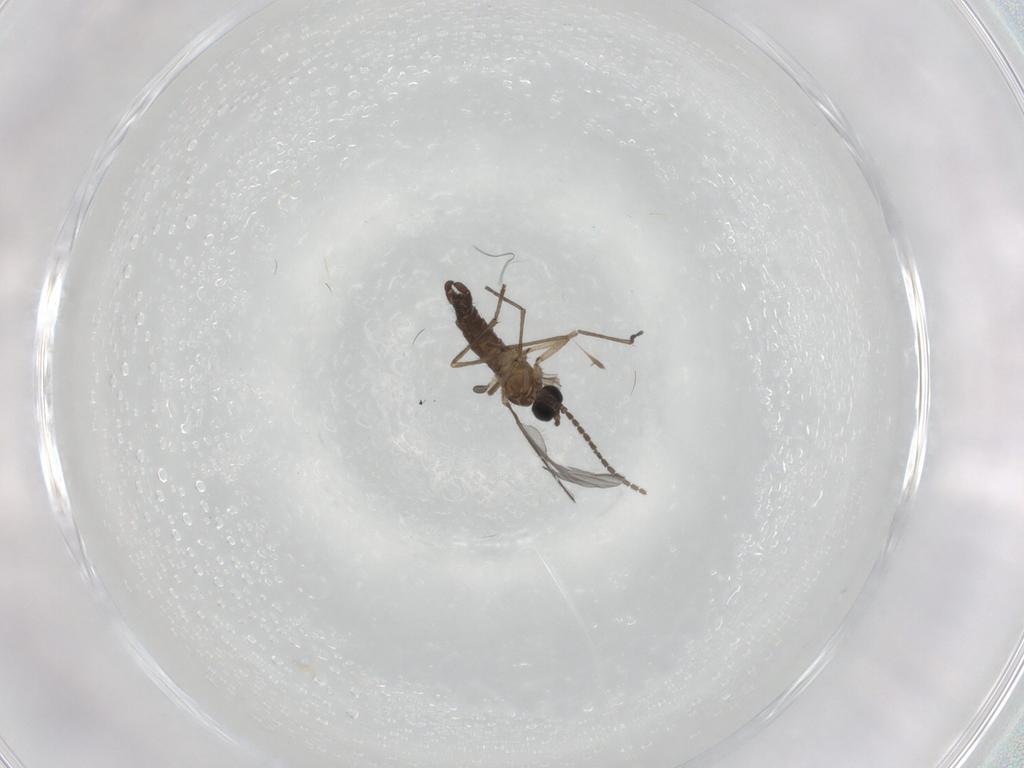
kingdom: Animalia
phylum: Arthropoda
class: Insecta
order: Diptera
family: Sciaridae
